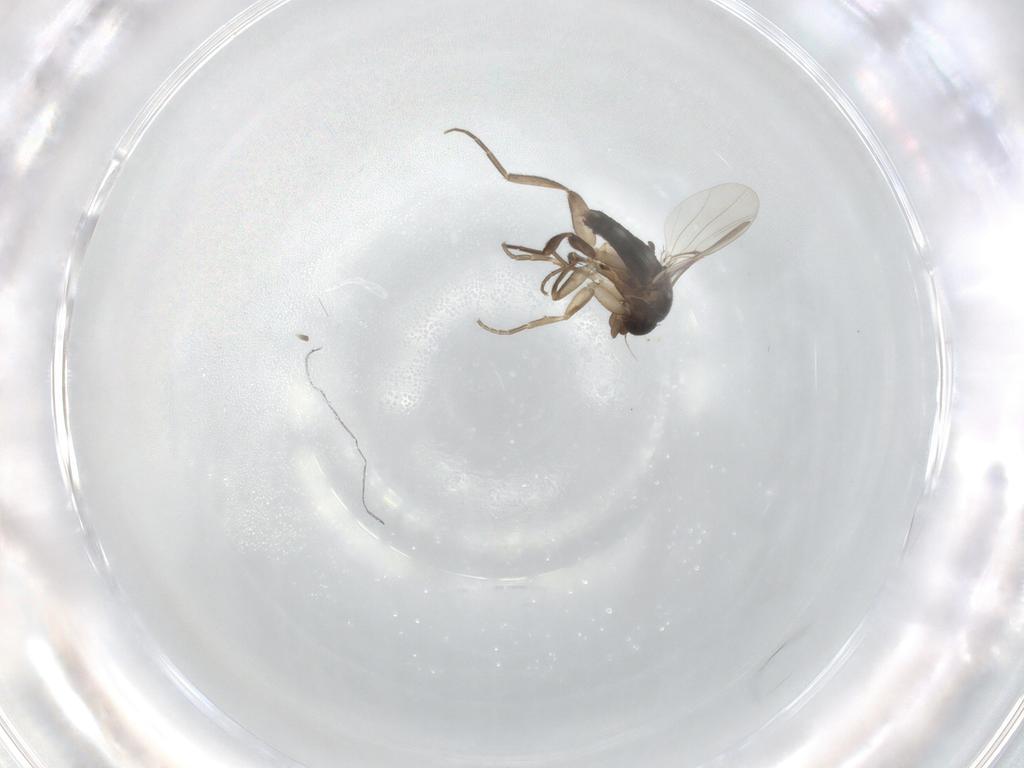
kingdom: Animalia
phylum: Arthropoda
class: Insecta
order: Diptera
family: Phoridae
